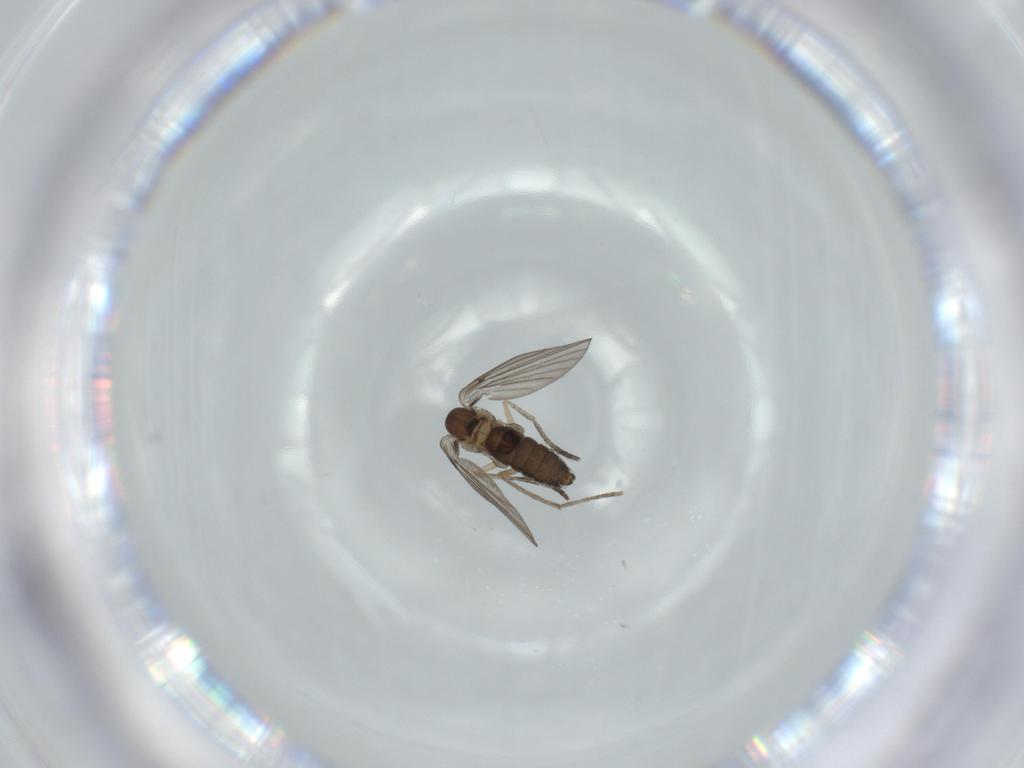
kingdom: Animalia
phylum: Arthropoda
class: Insecta
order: Diptera
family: Psychodidae
